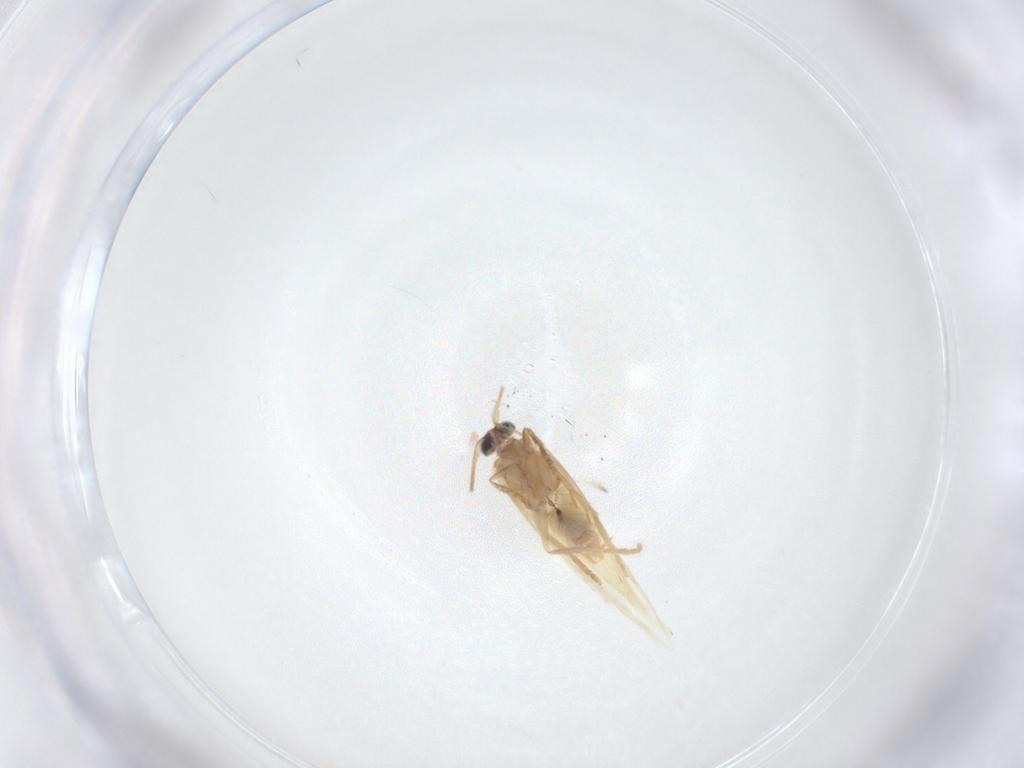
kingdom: Animalia
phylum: Arthropoda
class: Insecta
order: Lepidoptera
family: Nepticulidae
